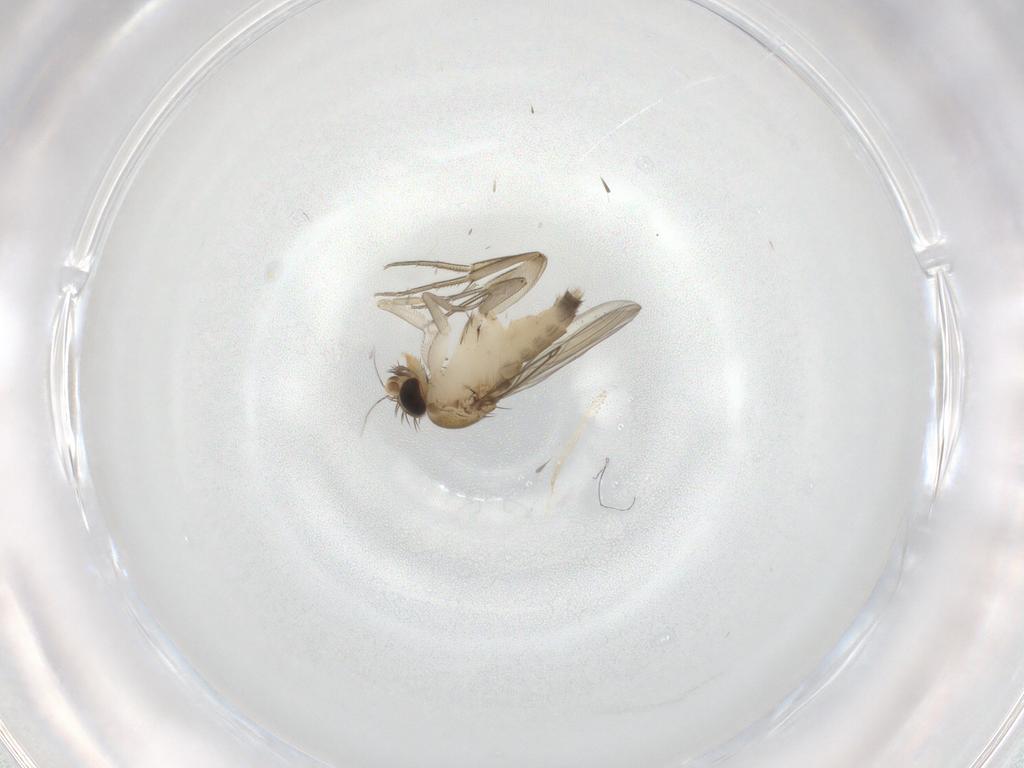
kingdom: Animalia
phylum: Arthropoda
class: Insecta
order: Diptera
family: Phoridae
